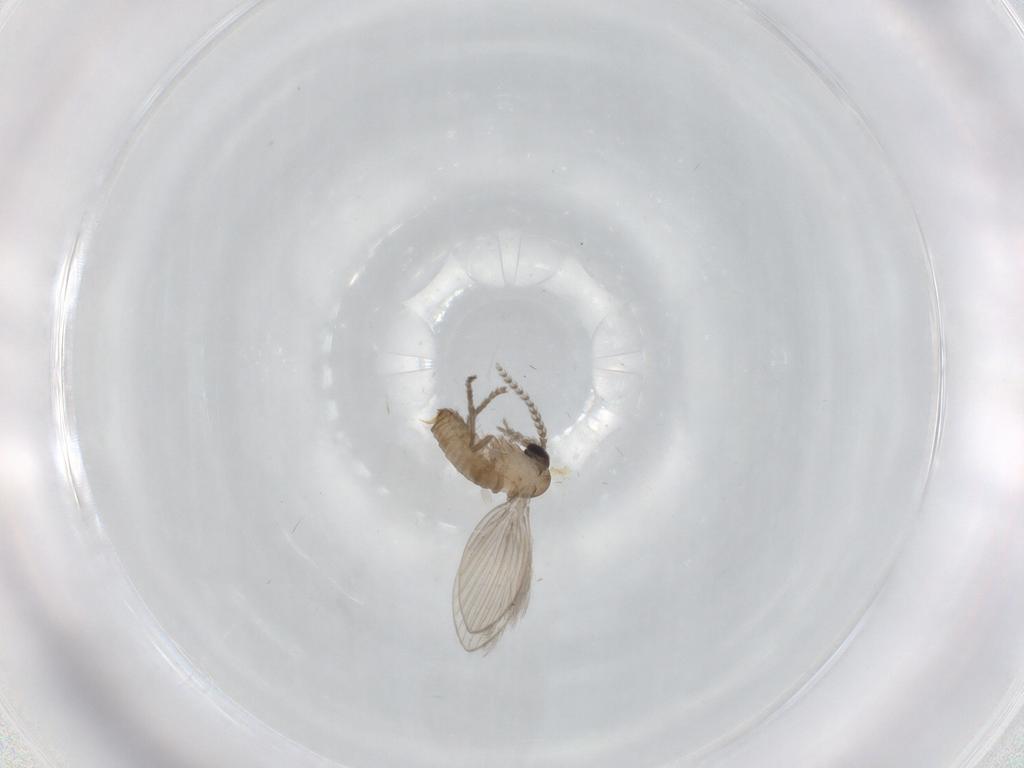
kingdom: Animalia
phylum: Arthropoda
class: Insecta
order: Diptera
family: Psychodidae
